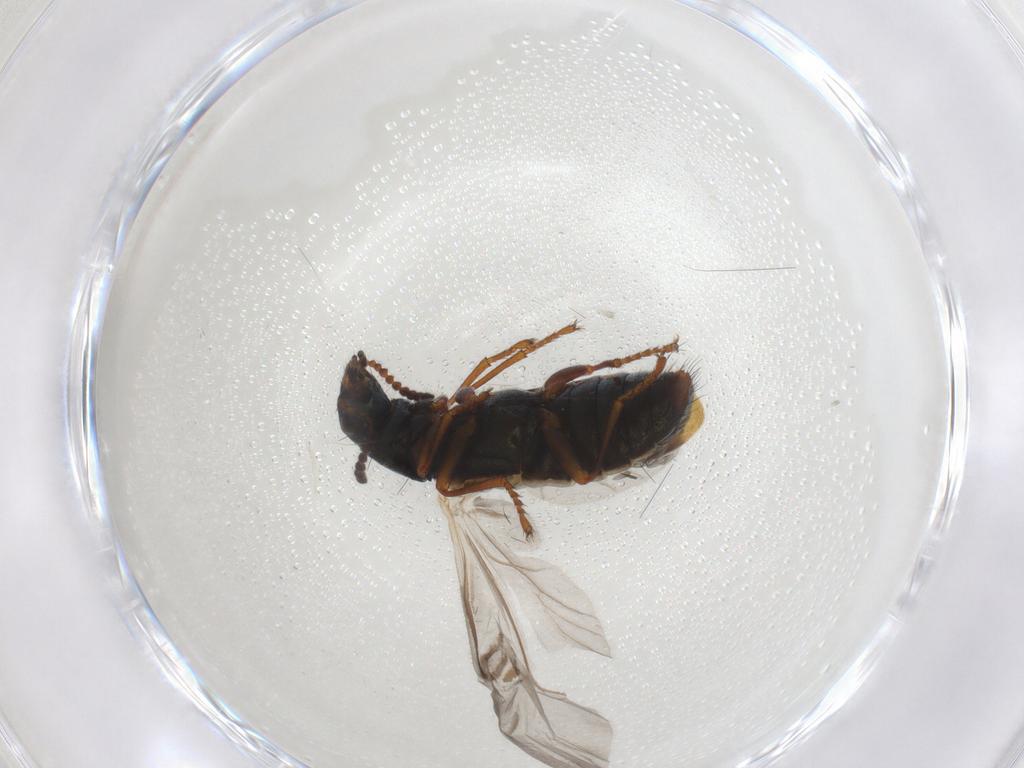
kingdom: Animalia
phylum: Arthropoda
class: Insecta
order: Coleoptera
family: Melyridae
